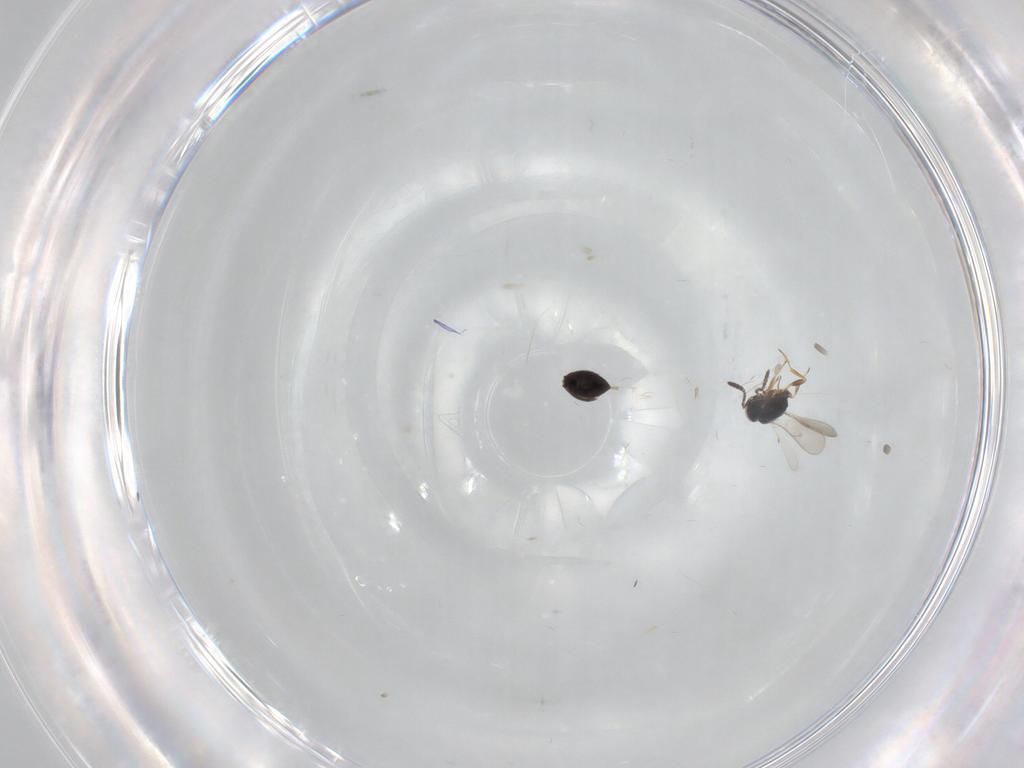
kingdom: Animalia
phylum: Arthropoda
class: Insecta
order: Hymenoptera
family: Scelionidae
